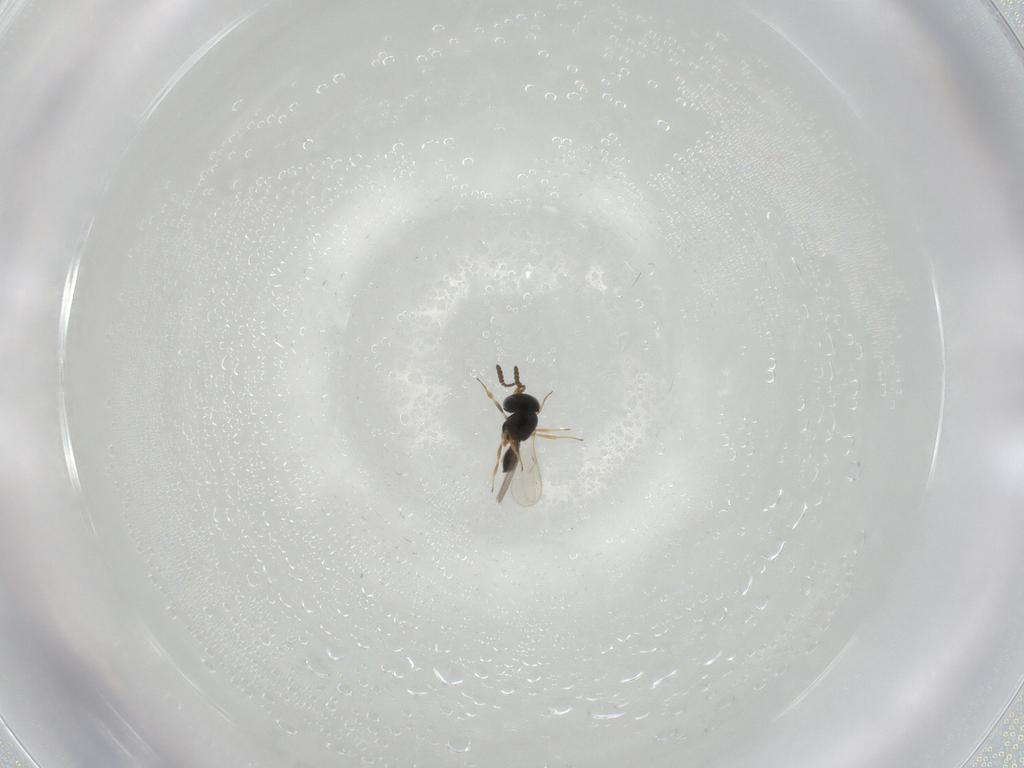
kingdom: Animalia
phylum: Arthropoda
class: Insecta
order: Hymenoptera
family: Scelionidae
